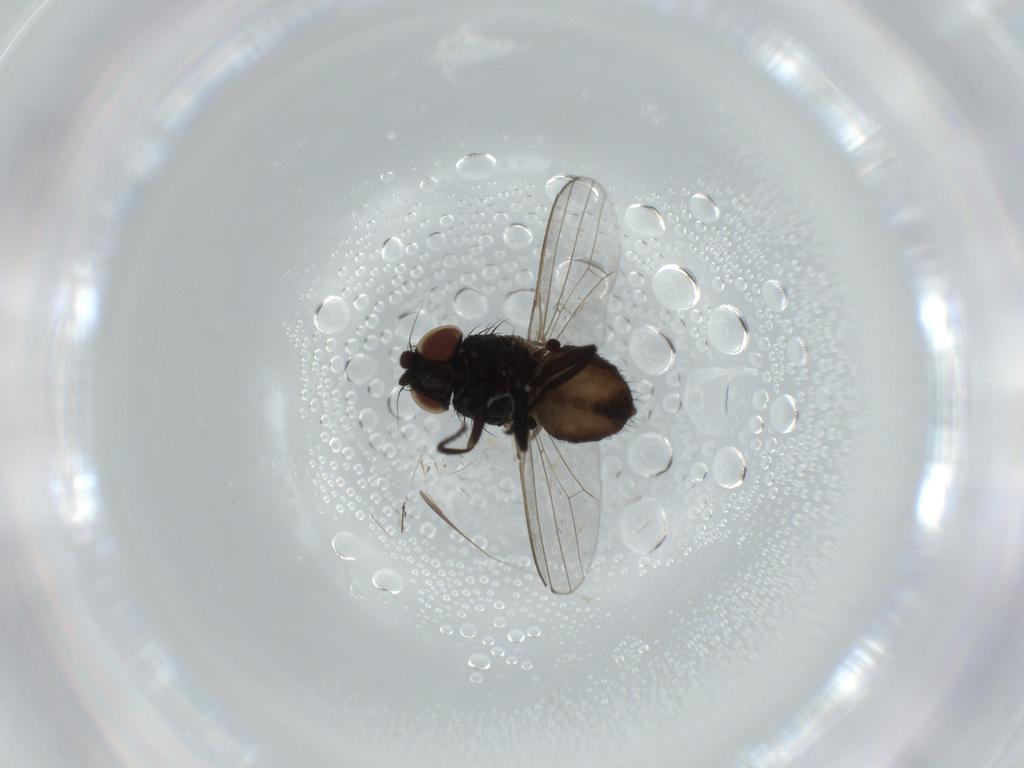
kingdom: Animalia
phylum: Arthropoda
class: Insecta
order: Diptera
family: Milichiidae
